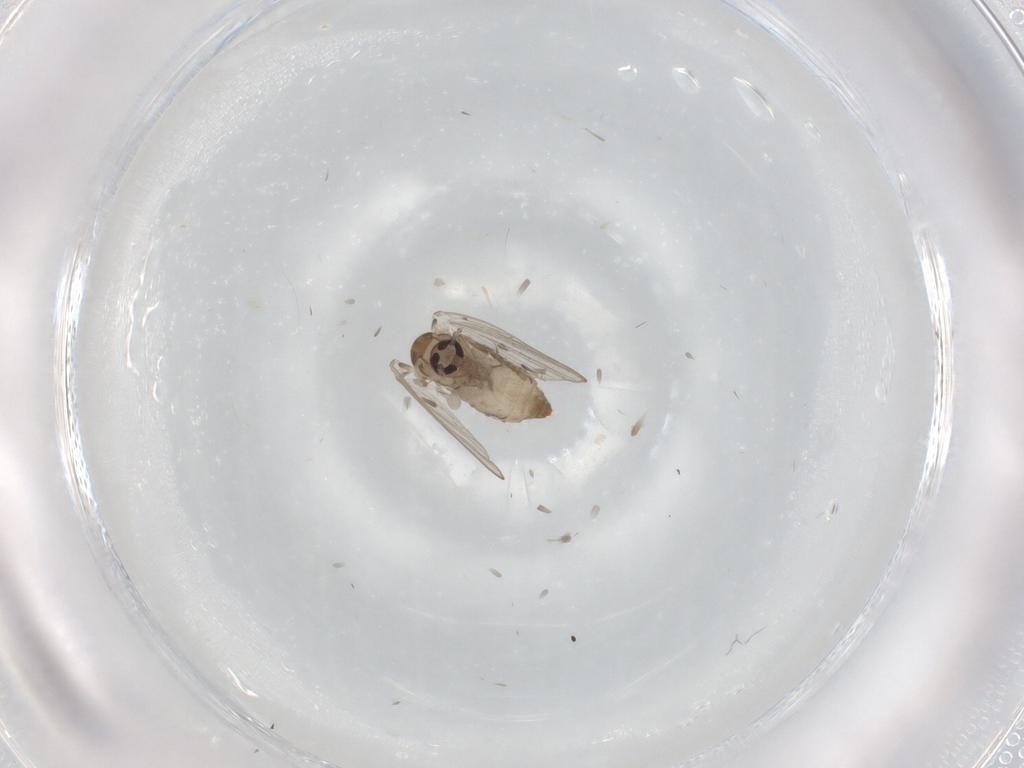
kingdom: Animalia
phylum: Arthropoda
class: Insecta
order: Diptera
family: Psychodidae
